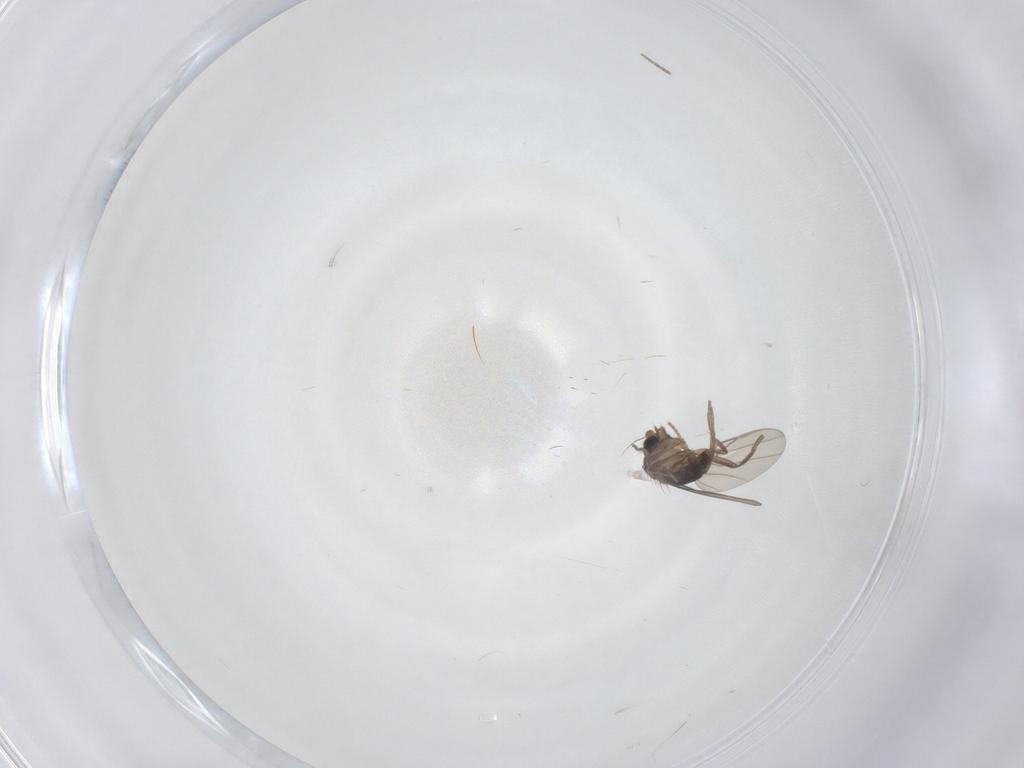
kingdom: Animalia
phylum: Arthropoda
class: Insecta
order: Diptera
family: Phoridae
